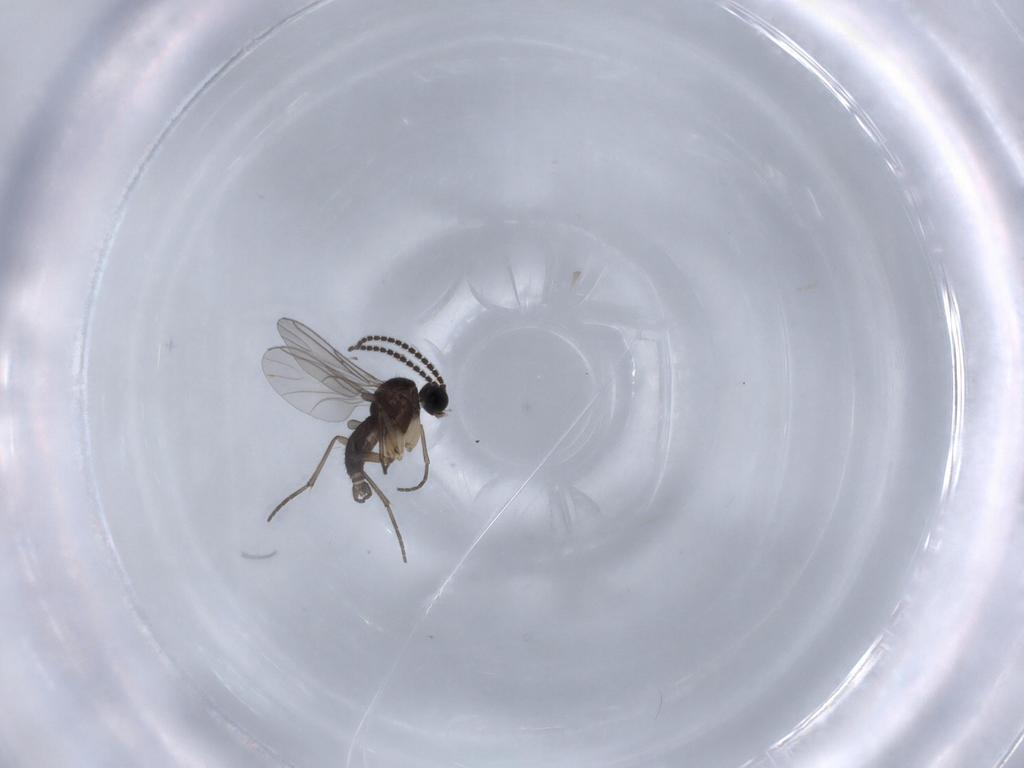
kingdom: Animalia
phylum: Arthropoda
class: Insecta
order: Diptera
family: Sciaridae
